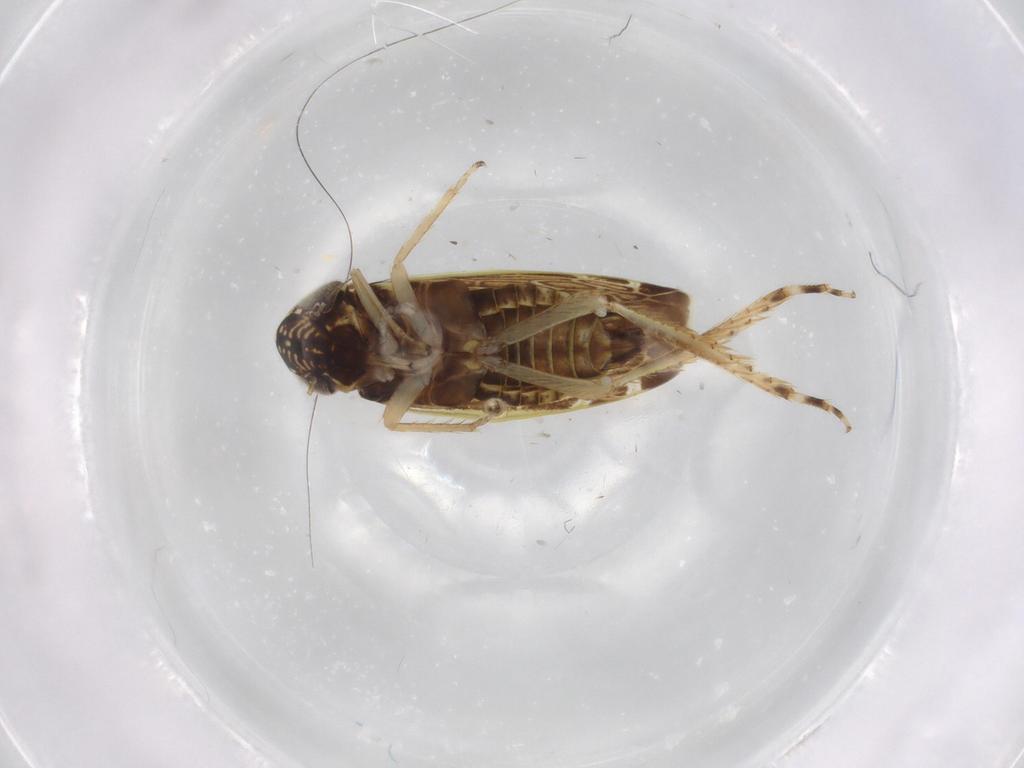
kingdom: Animalia
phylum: Arthropoda
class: Insecta
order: Hemiptera
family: Cicadellidae
